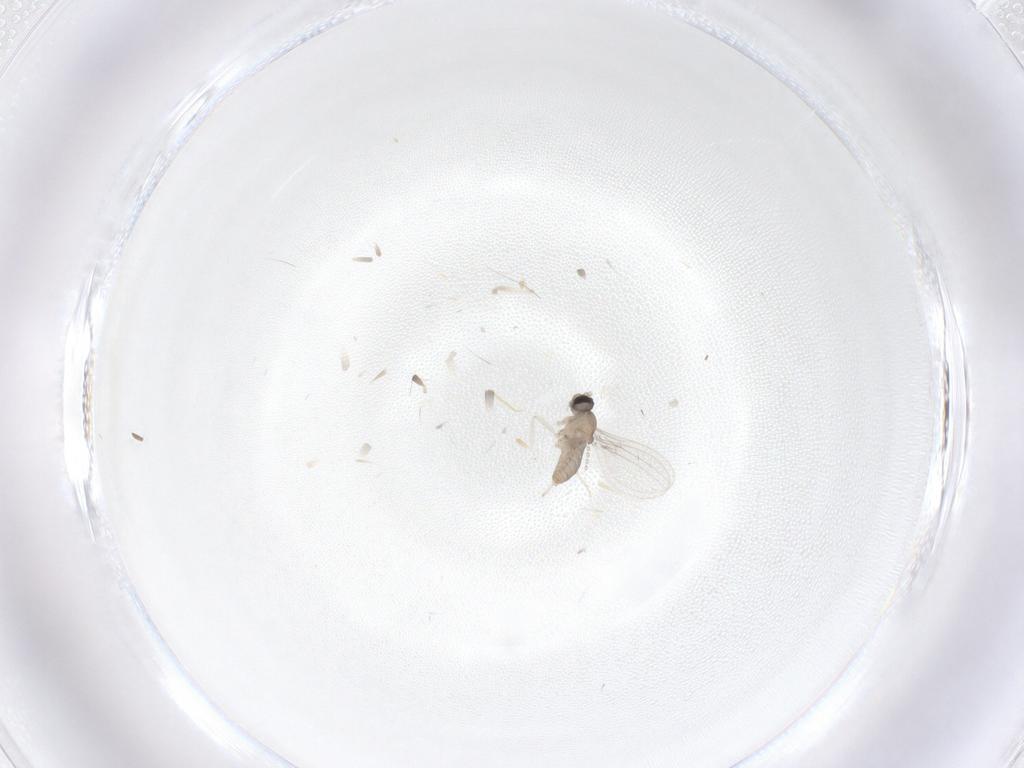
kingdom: Animalia
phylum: Arthropoda
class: Insecta
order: Diptera
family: Cecidomyiidae
